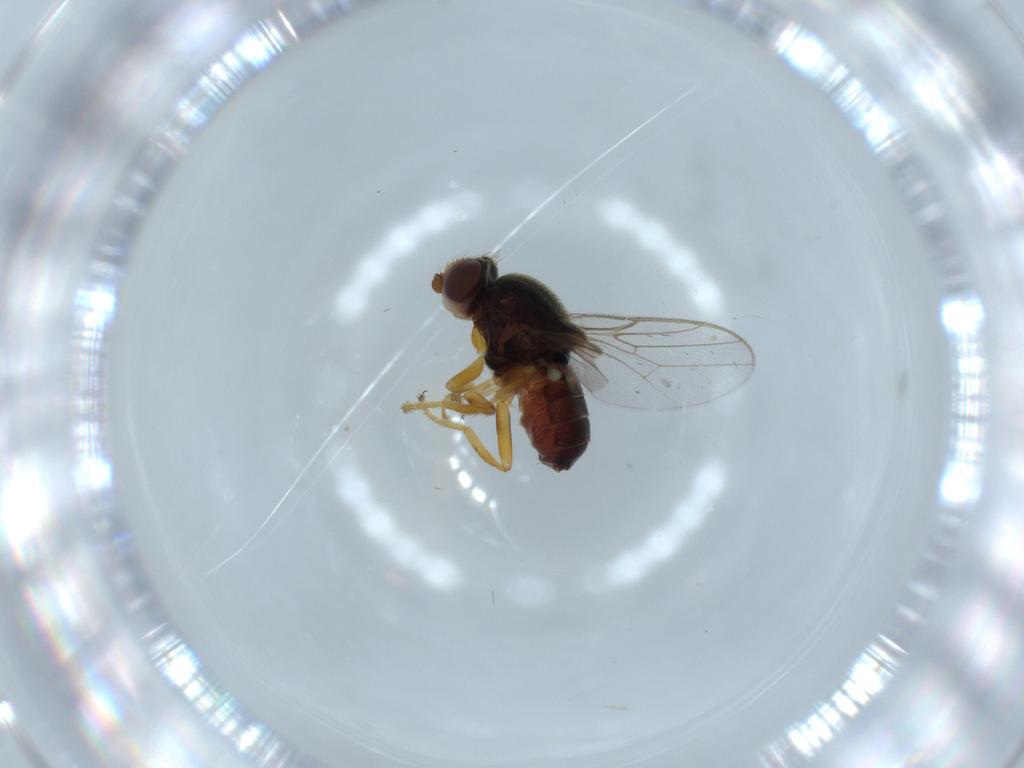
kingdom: Animalia
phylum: Arthropoda
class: Insecta
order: Diptera
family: Chloropidae
